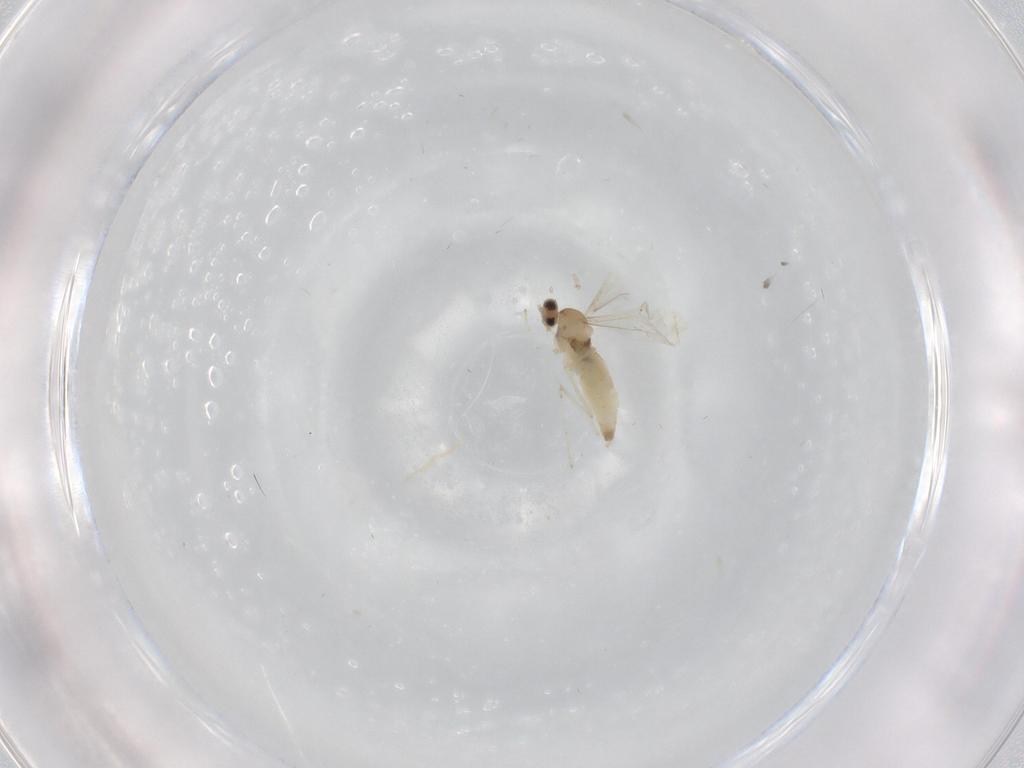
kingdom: Animalia
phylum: Arthropoda
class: Insecta
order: Diptera
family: Cecidomyiidae
